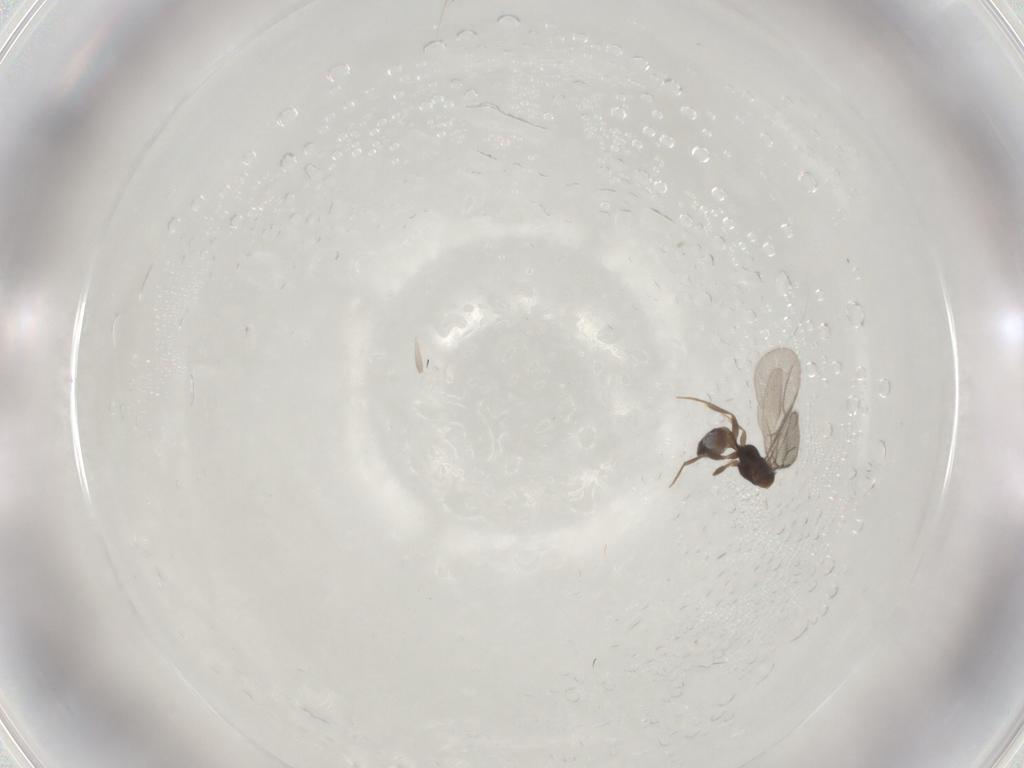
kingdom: Animalia
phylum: Arthropoda
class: Insecta
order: Hymenoptera
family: Bethylidae
